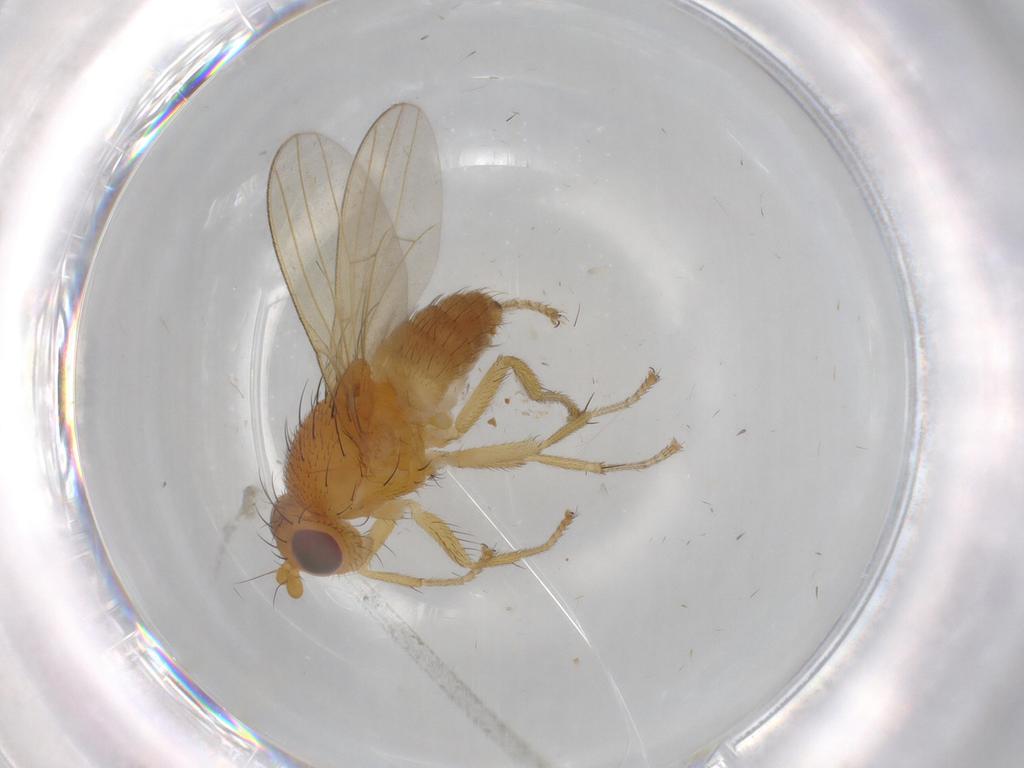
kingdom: Animalia
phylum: Arthropoda
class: Insecta
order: Diptera
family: Lauxaniidae
